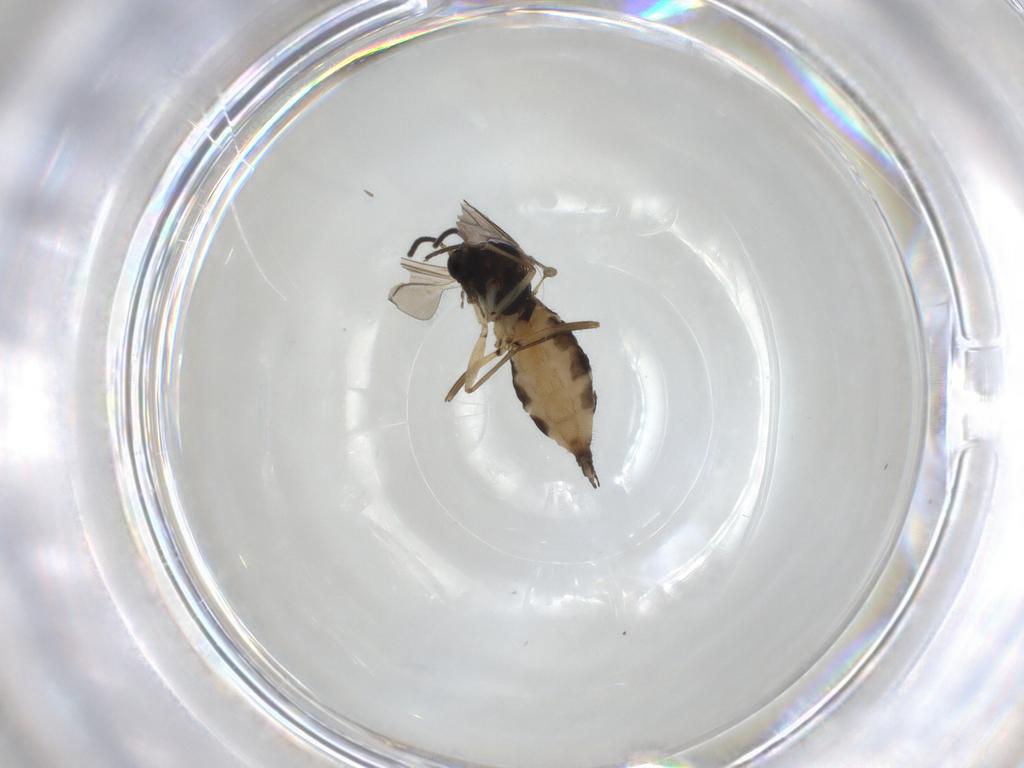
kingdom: Animalia
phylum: Arthropoda
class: Insecta
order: Diptera
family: Sciaridae
